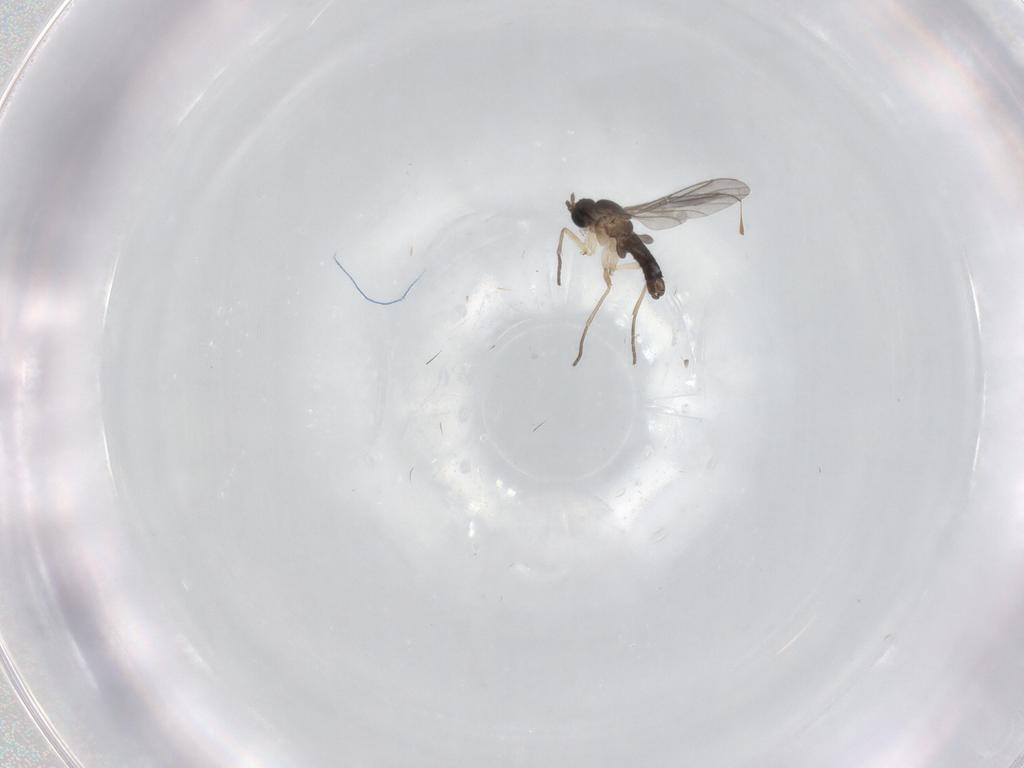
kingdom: Animalia
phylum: Arthropoda
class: Insecta
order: Diptera
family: Sciaridae
